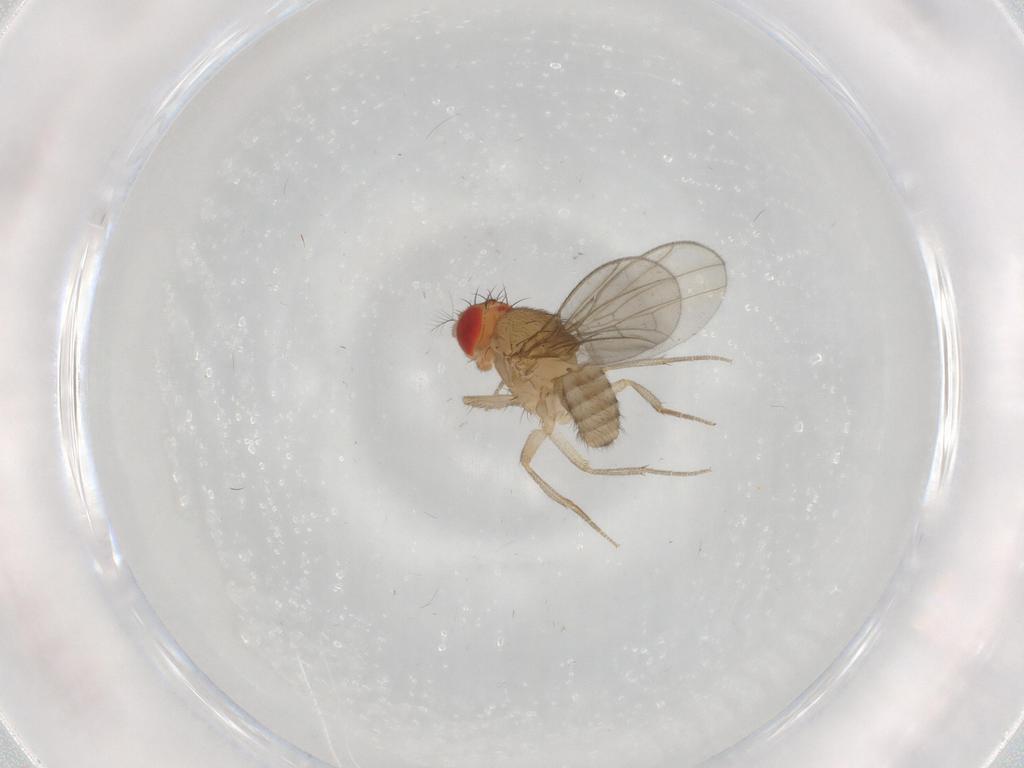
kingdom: Animalia
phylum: Arthropoda
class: Insecta
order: Diptera
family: Drosophilidae
